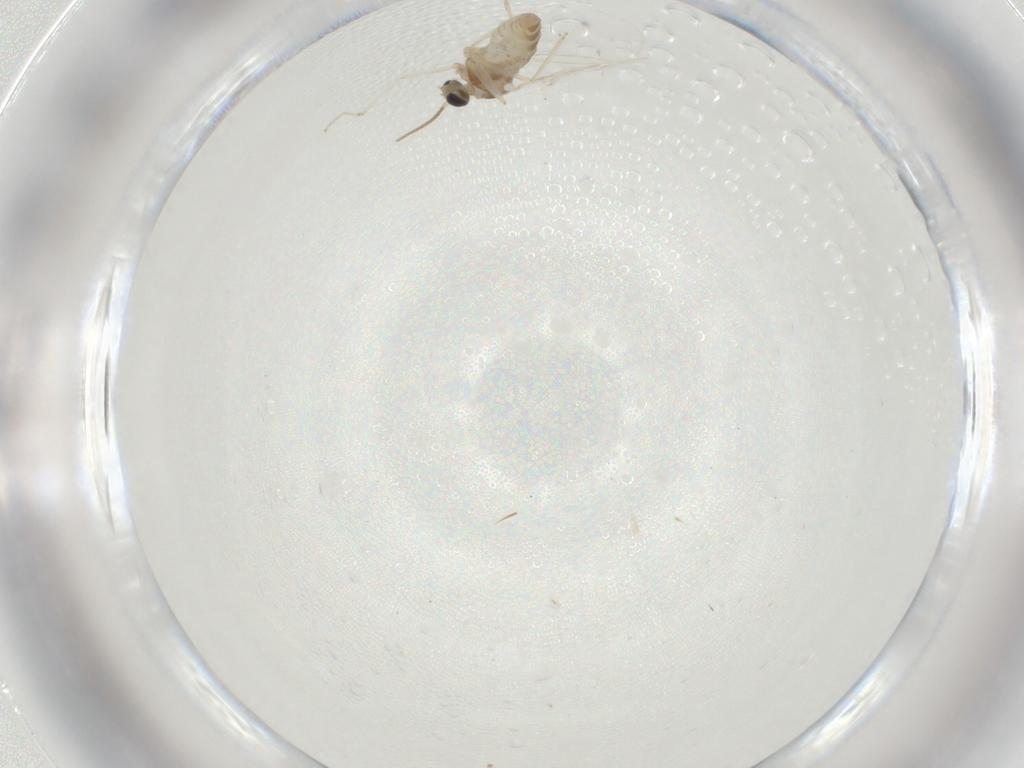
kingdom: Animalia
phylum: Arthropoda
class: Insecta
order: Diptera
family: Cecidomyiidae
